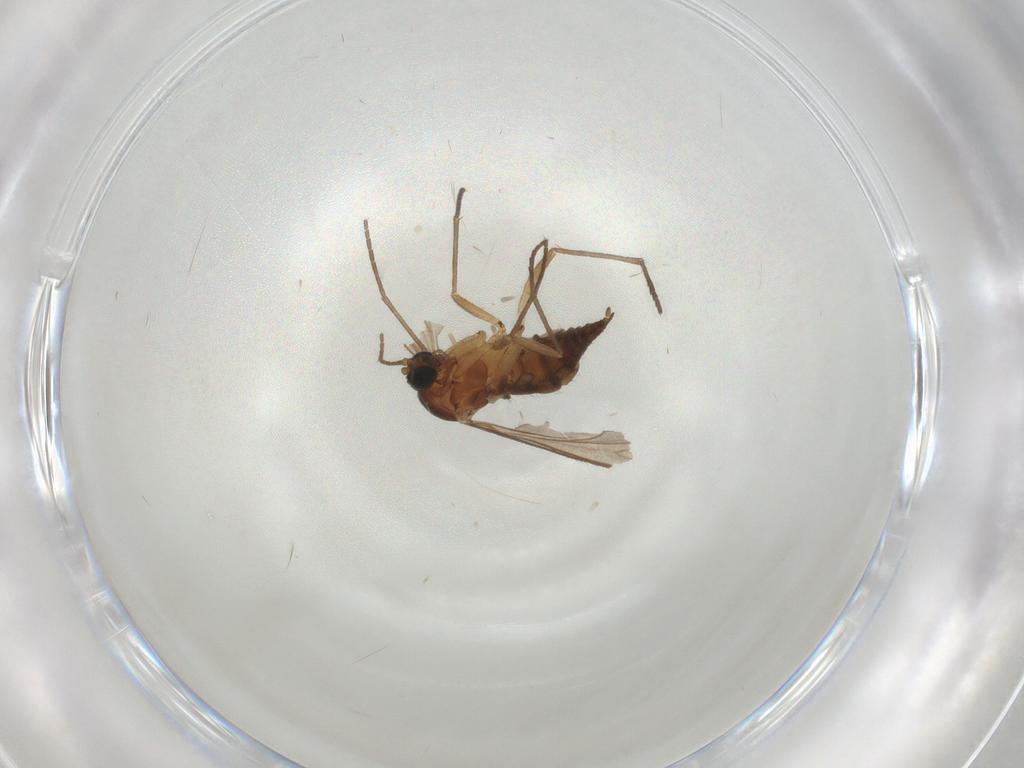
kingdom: Animalia
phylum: Arthropoda
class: Insecta
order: Diptera
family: Sciaridae
